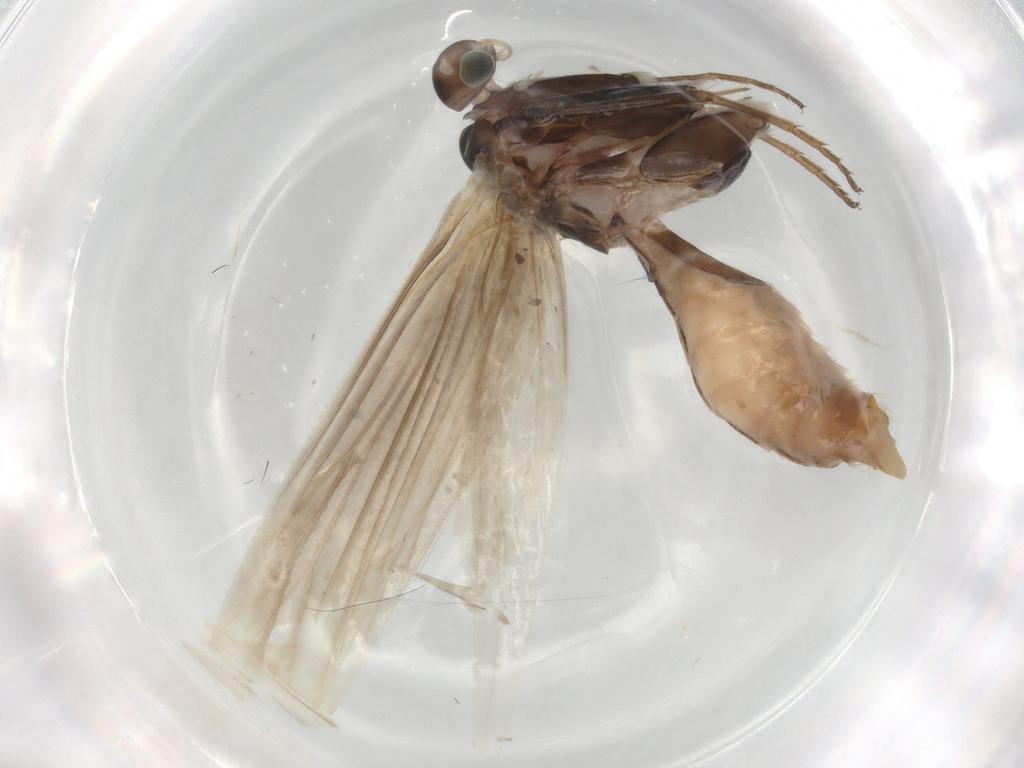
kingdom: Animalia
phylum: Arthropoda
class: Insecta
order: Lepidoptera
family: Coleophoridae
